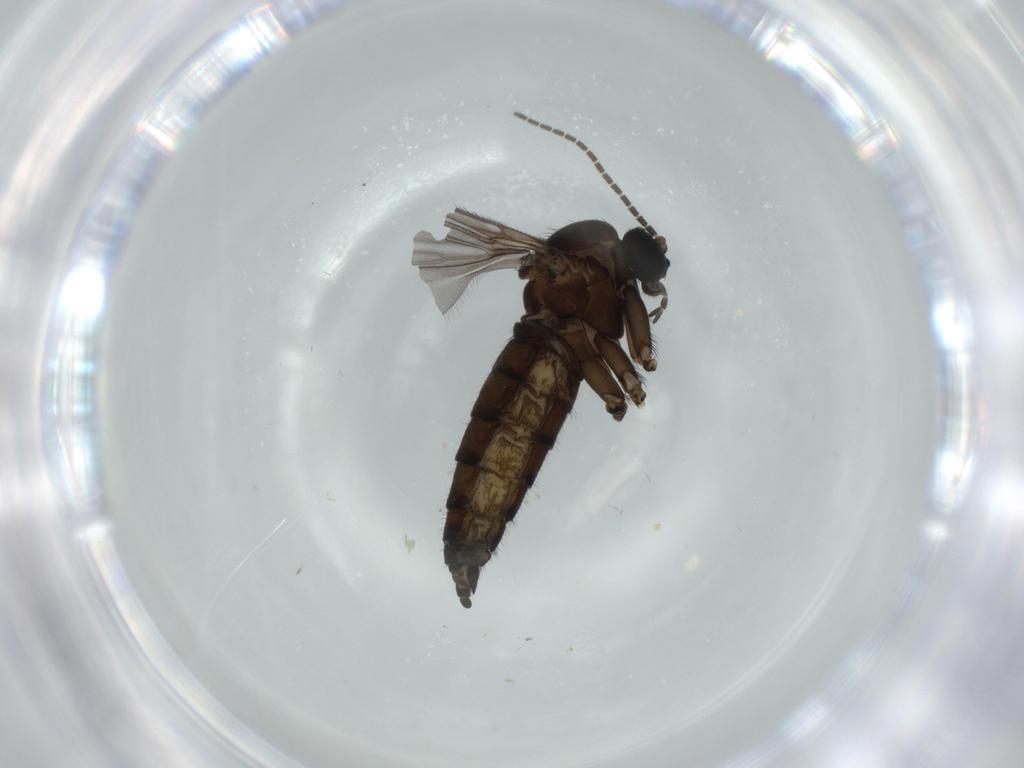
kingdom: Animalia
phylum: Arthropoda
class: Insecta
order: Diptera
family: Sciaridae
